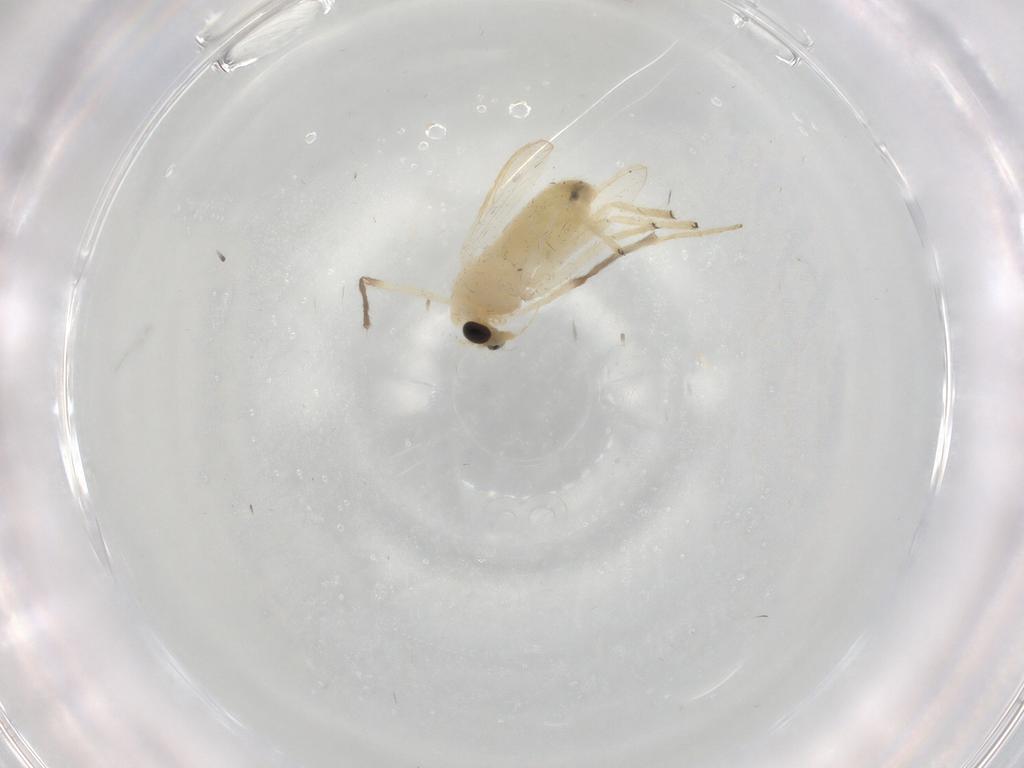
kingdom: Animalia
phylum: Arthropoda
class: Insecta
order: Diptera
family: Chironomidae
